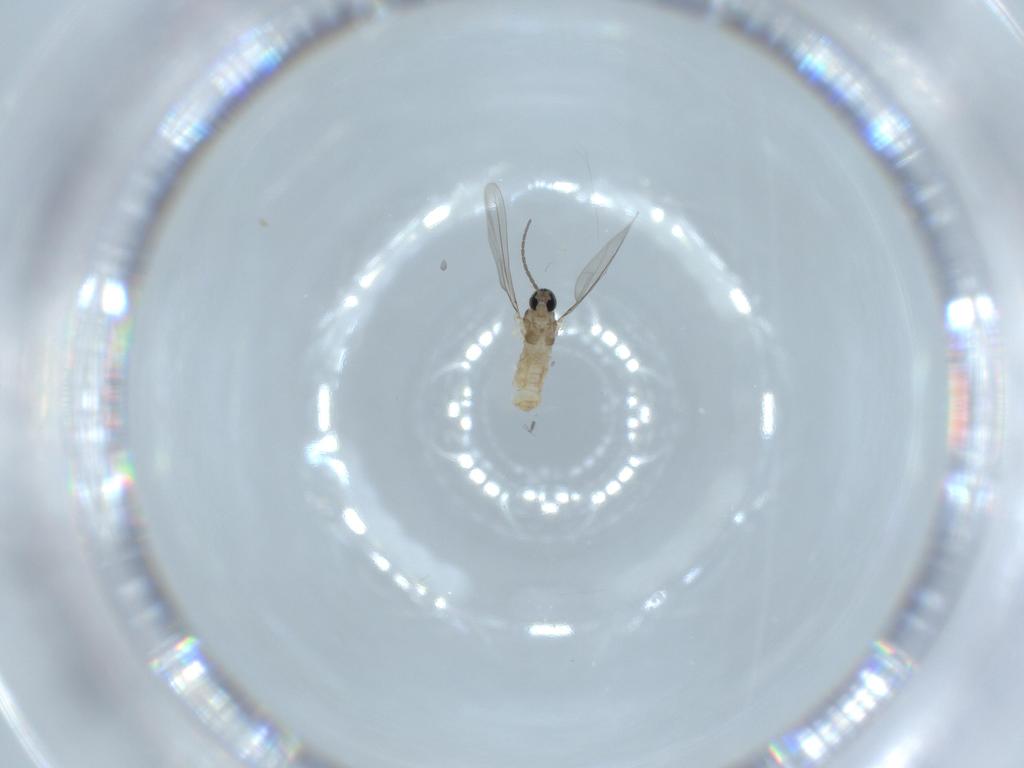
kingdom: Animalia
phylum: Arthropoda
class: Insecta
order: Diptera
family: Cecidomyiidae
